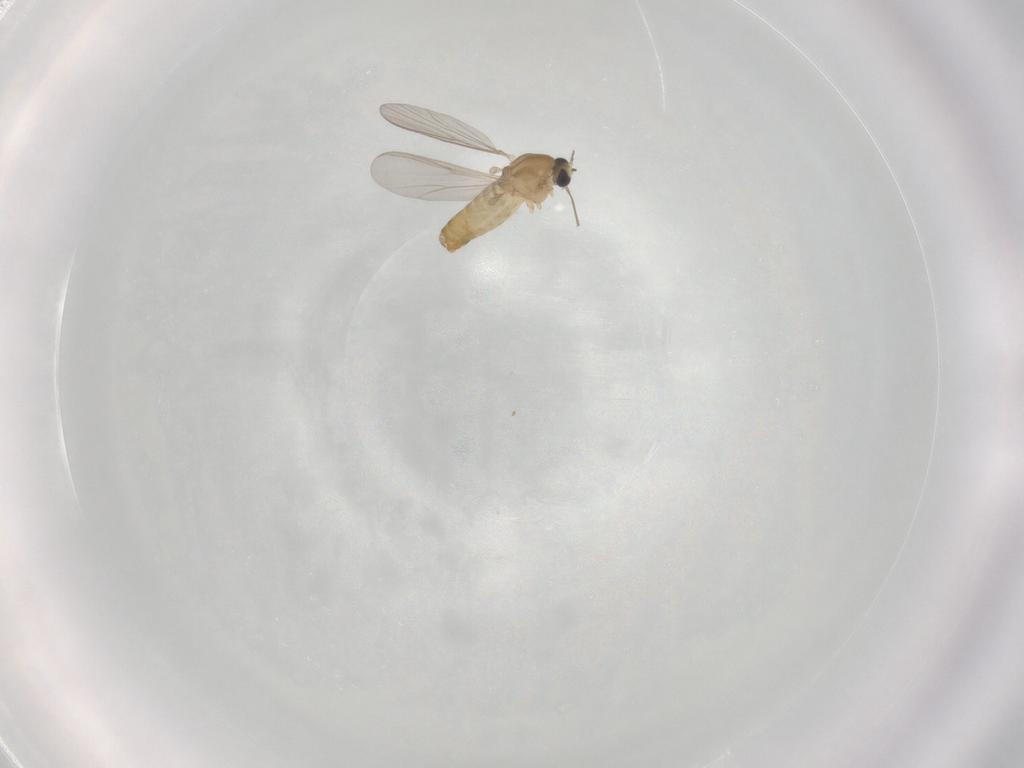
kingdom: Animalia
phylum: Arthropoda
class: Insecta
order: Diptera
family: Chironomidae
